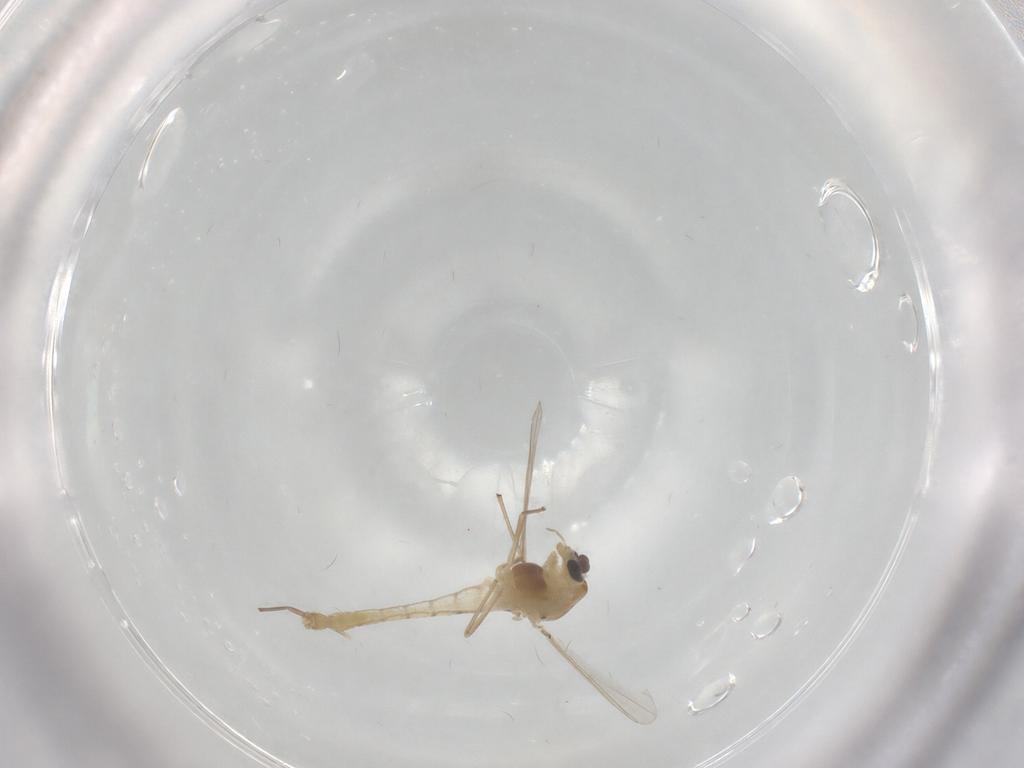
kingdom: Animalia
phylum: Arthropoda
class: Insecta
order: Diptera
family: Chironomidae
